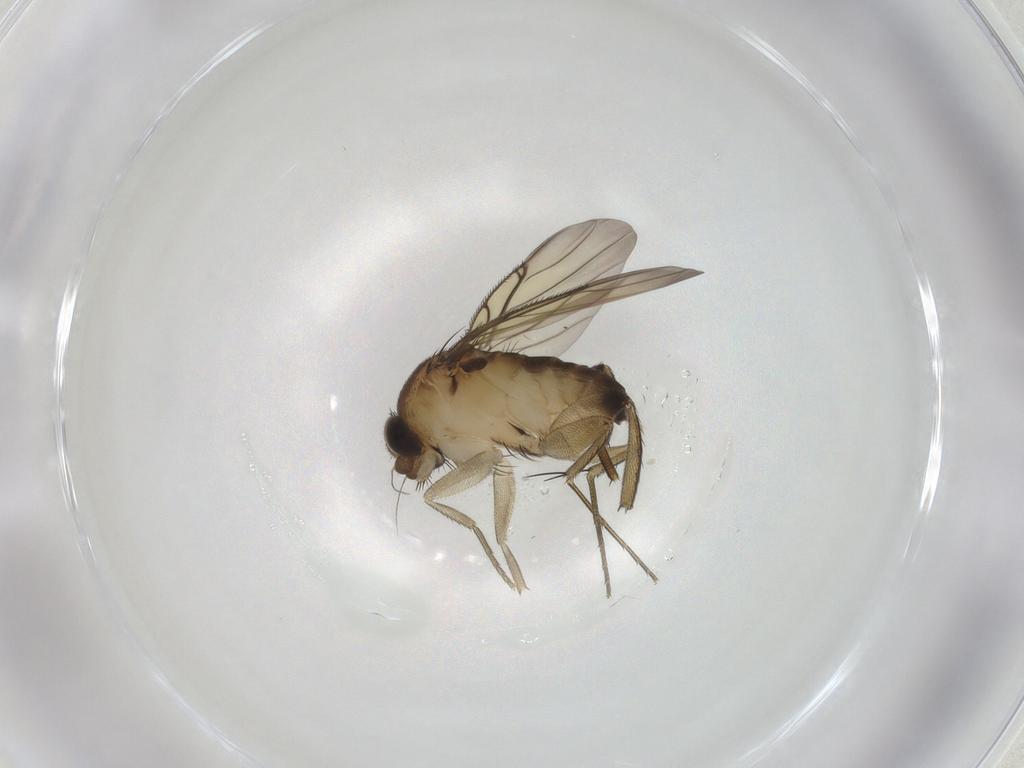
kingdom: Animalia
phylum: Arthropoda
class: Insecta
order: Diptera
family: Phoridae
